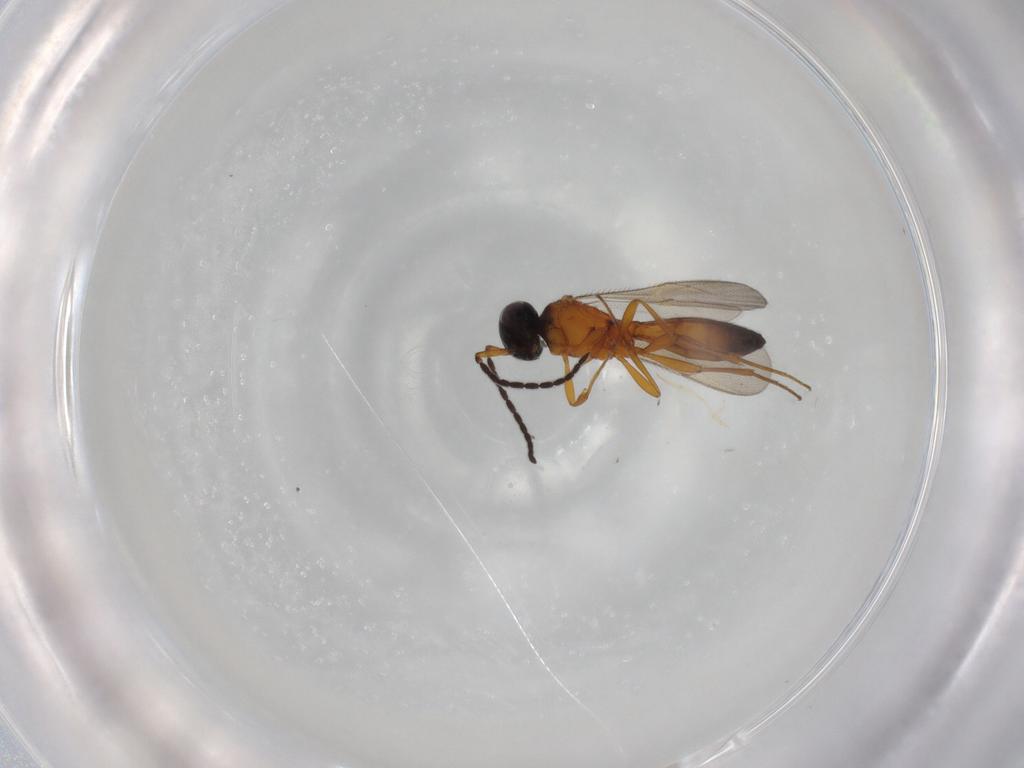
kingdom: Animalia
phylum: Arthropoda
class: Insecta
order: Hymenoptera
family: Scelionidae
